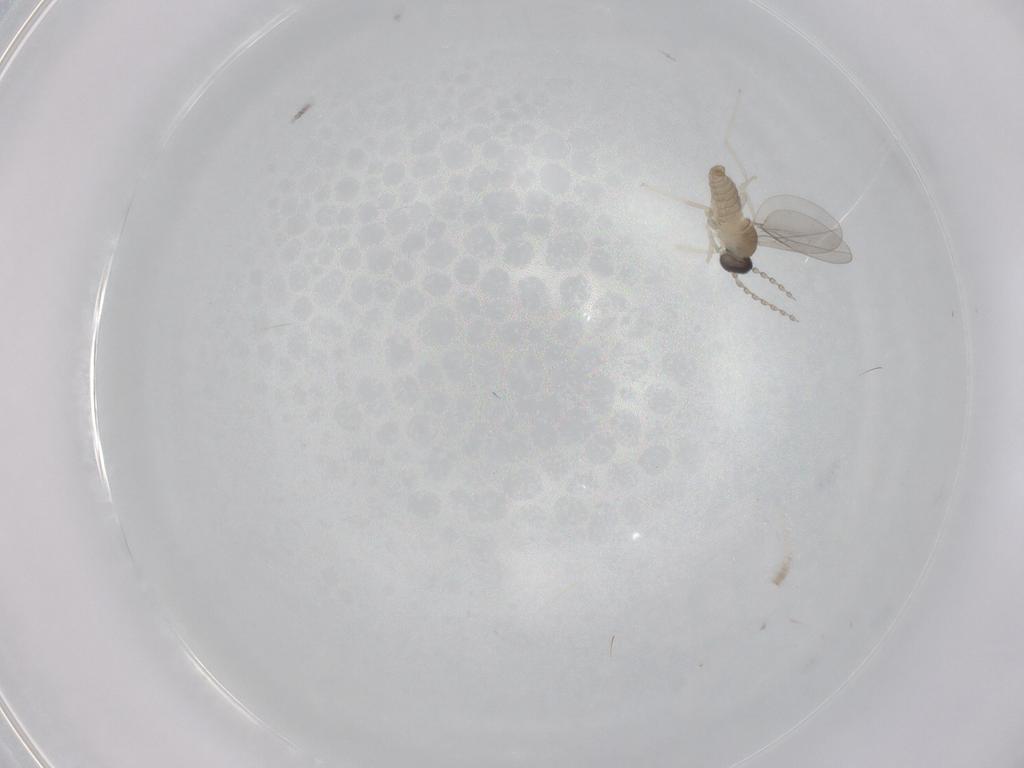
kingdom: Animalia
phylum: Arthropoda
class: Insecta
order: Diptera
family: Chironomidae
